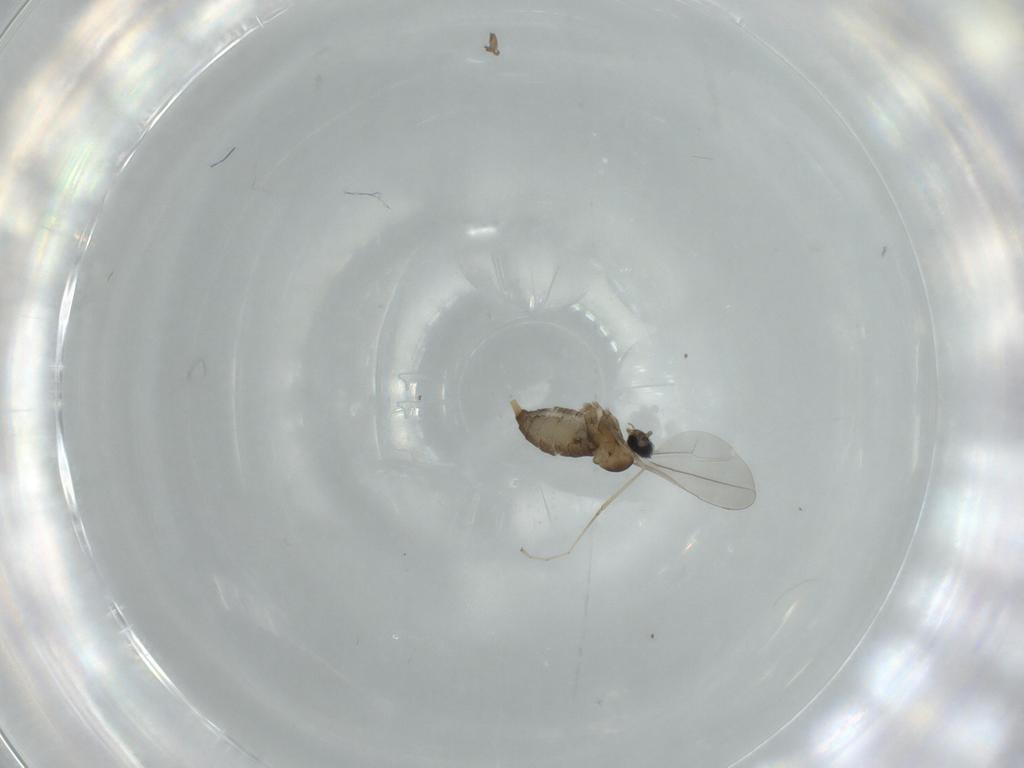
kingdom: Animalia
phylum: Arthropoda
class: Insecta
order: Diptera
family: Cecidomyiidae
